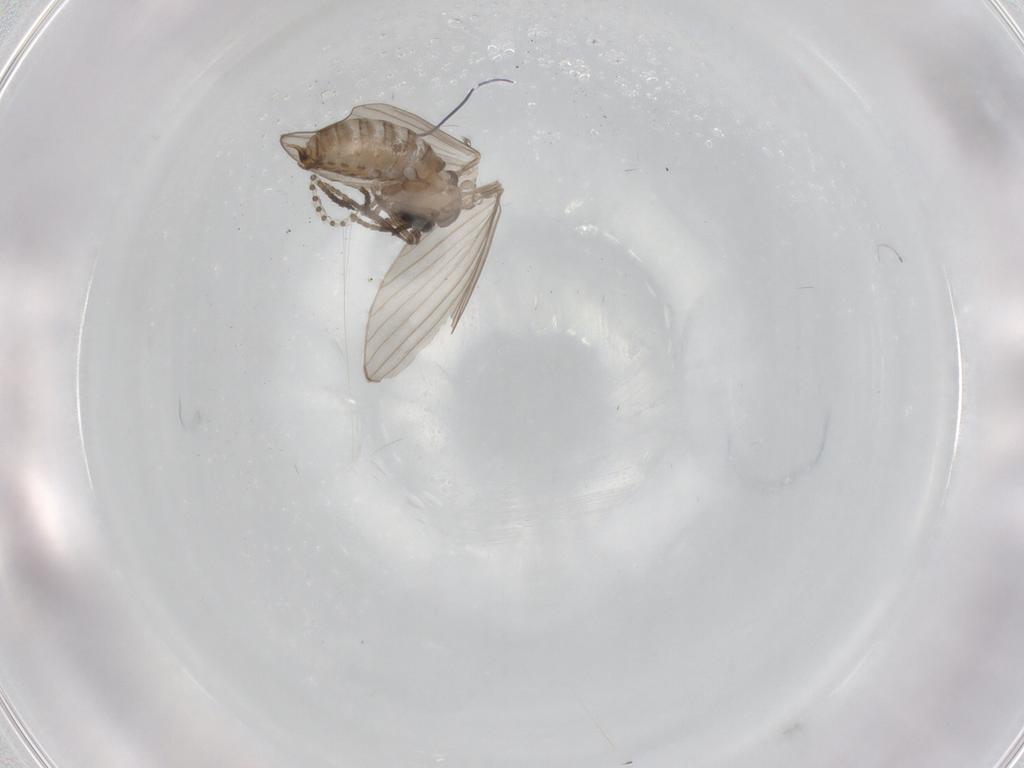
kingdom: Animalia
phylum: Arthropoda
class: Insecta
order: Diptera
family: Psychodidae
